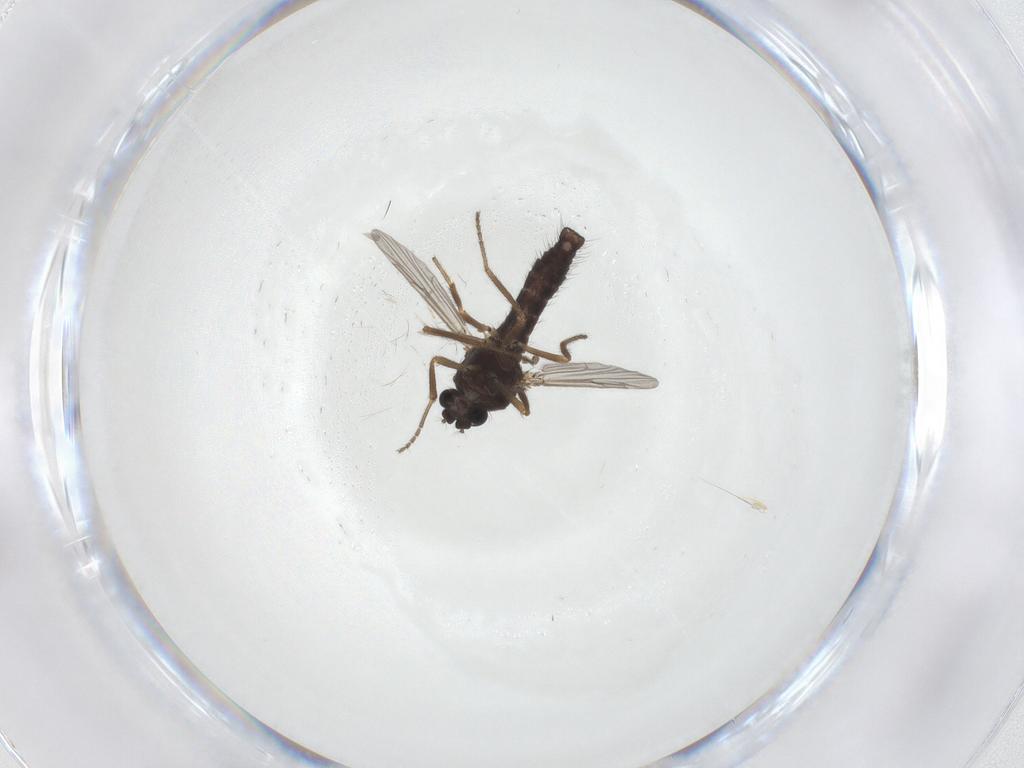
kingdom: Animalia
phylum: Arthropoda
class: Insecta
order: Diptera
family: Ceratopogonidae
